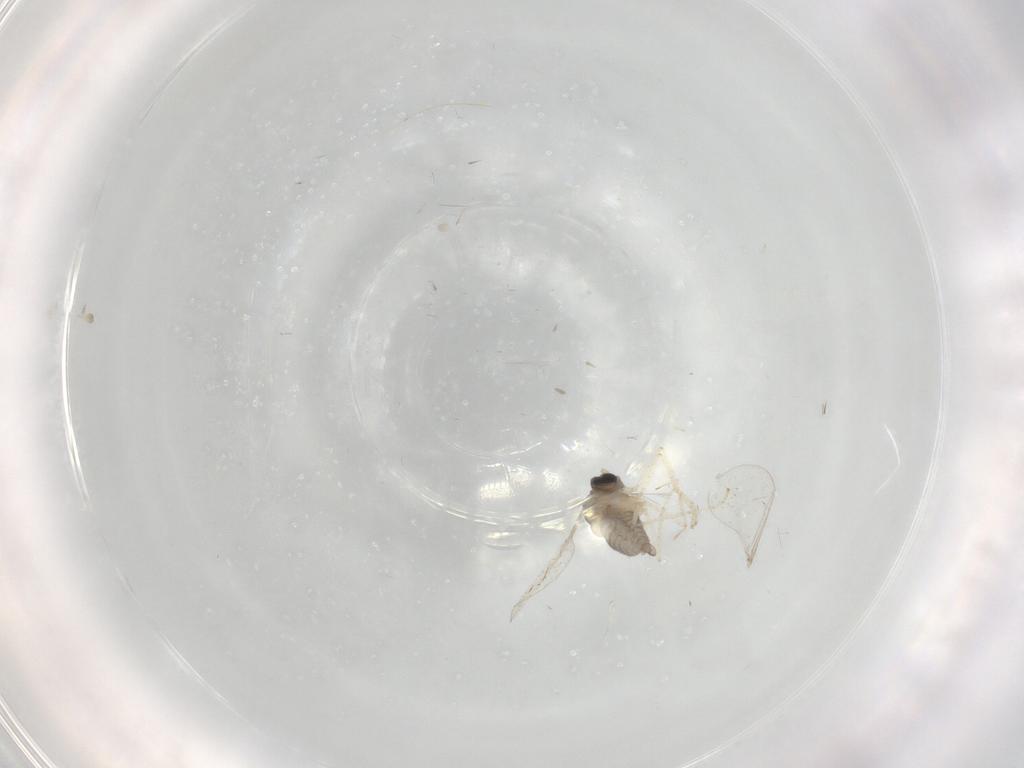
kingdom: Animalia
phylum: Arthropoda
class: Insecta
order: Diptera
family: Cecidomyiidae
